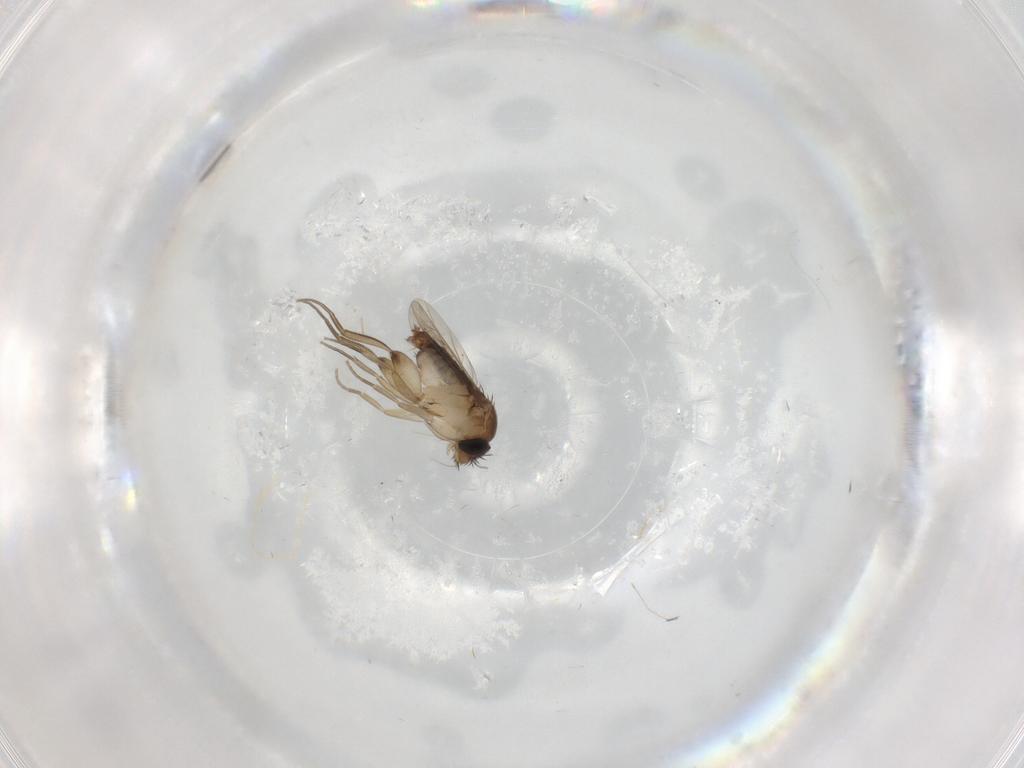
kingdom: Animalia
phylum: Arthropoda
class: Insecta
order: Diptera
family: Phoridae
